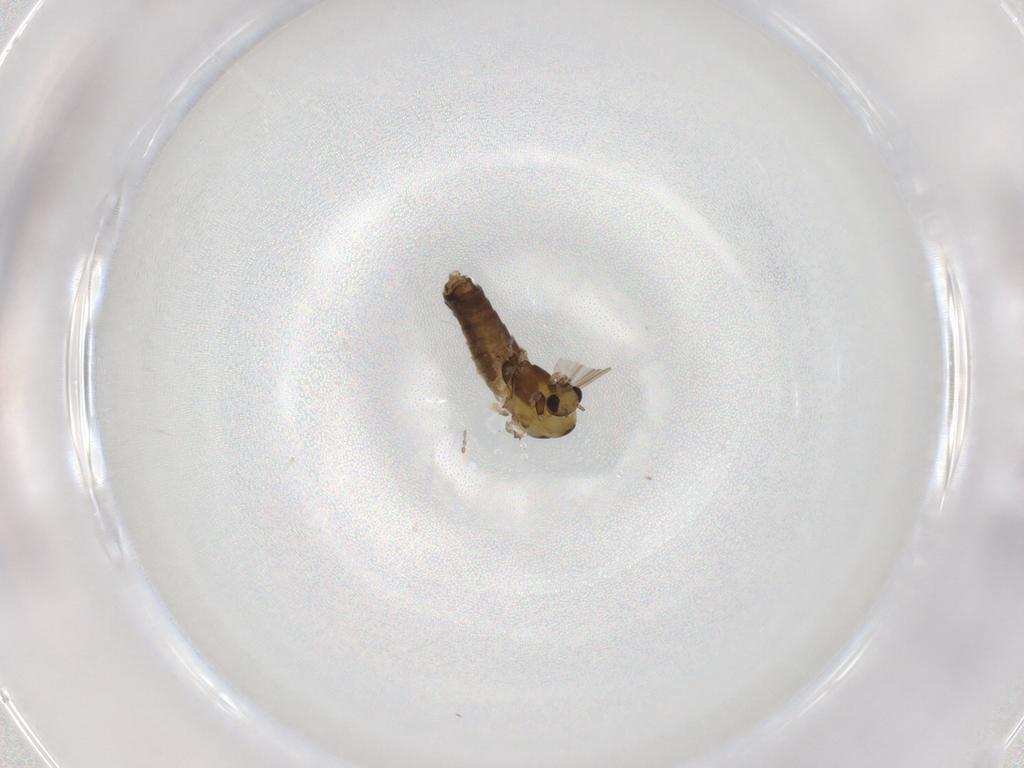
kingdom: Animalia
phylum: Arthropoda
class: Insecta
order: Diptera
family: Chironomidae
